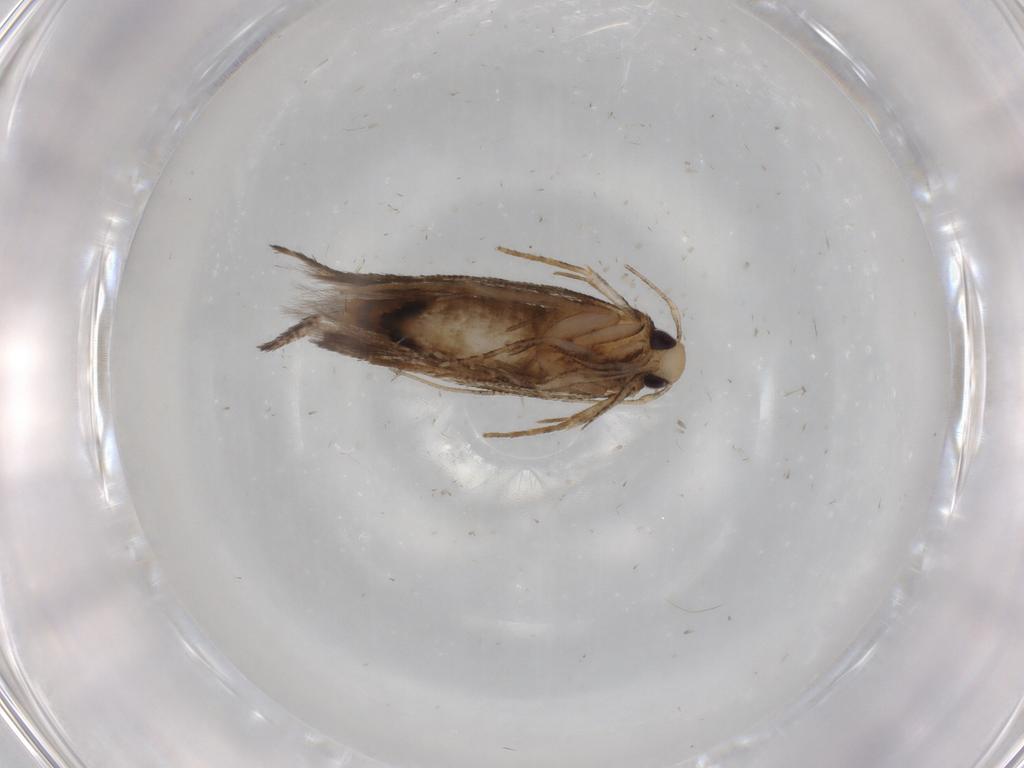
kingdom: Animalia
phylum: Arthropoda
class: Insecta
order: Lepidoptera
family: Cosmopterigidae
